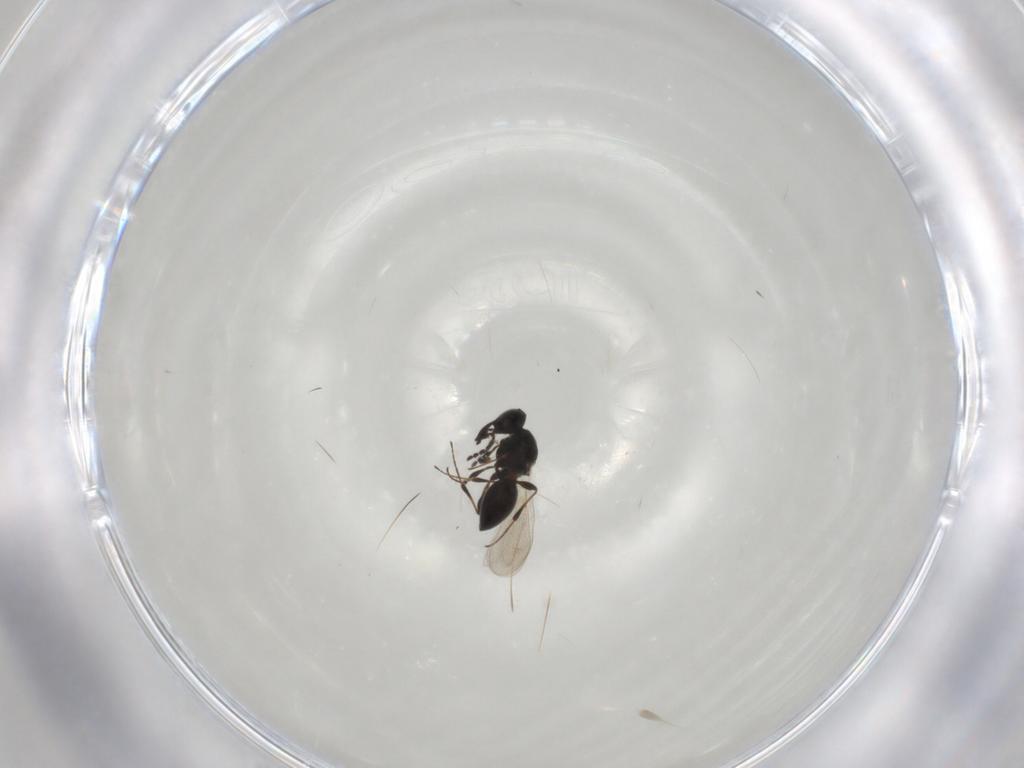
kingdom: Animalia
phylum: Arthropoda
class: Insecta
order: Hymenoptera
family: Platygastridae
